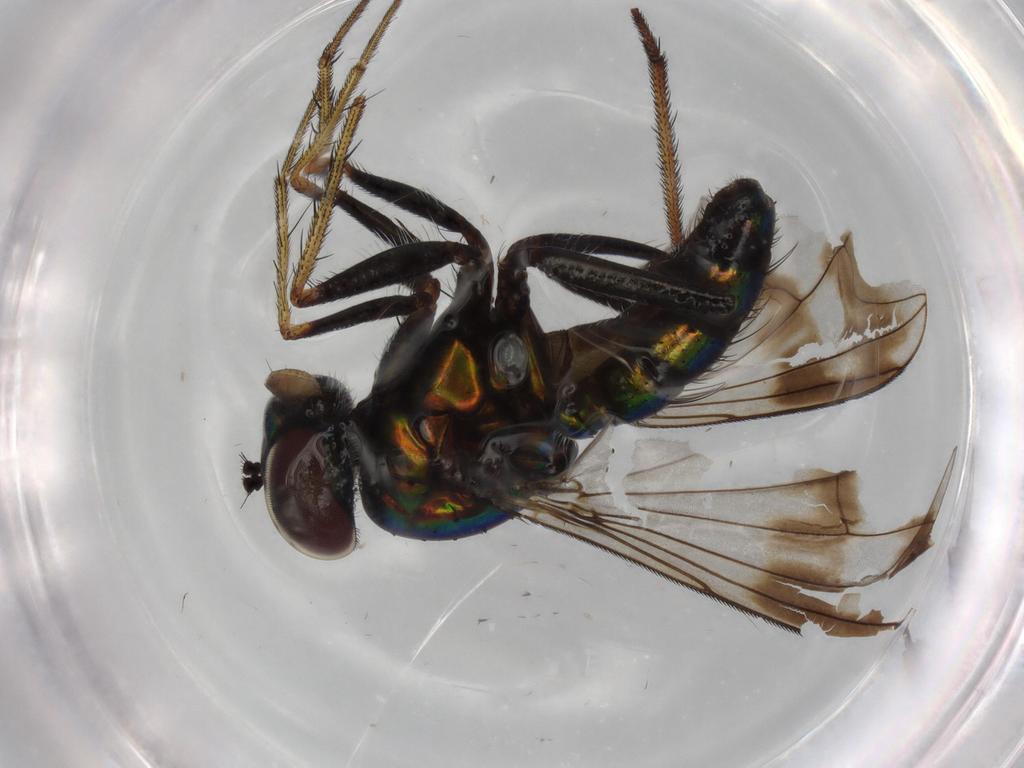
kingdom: Animalia
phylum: Arthropoda
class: Insecta
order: Diptera
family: Dolichopodidae
